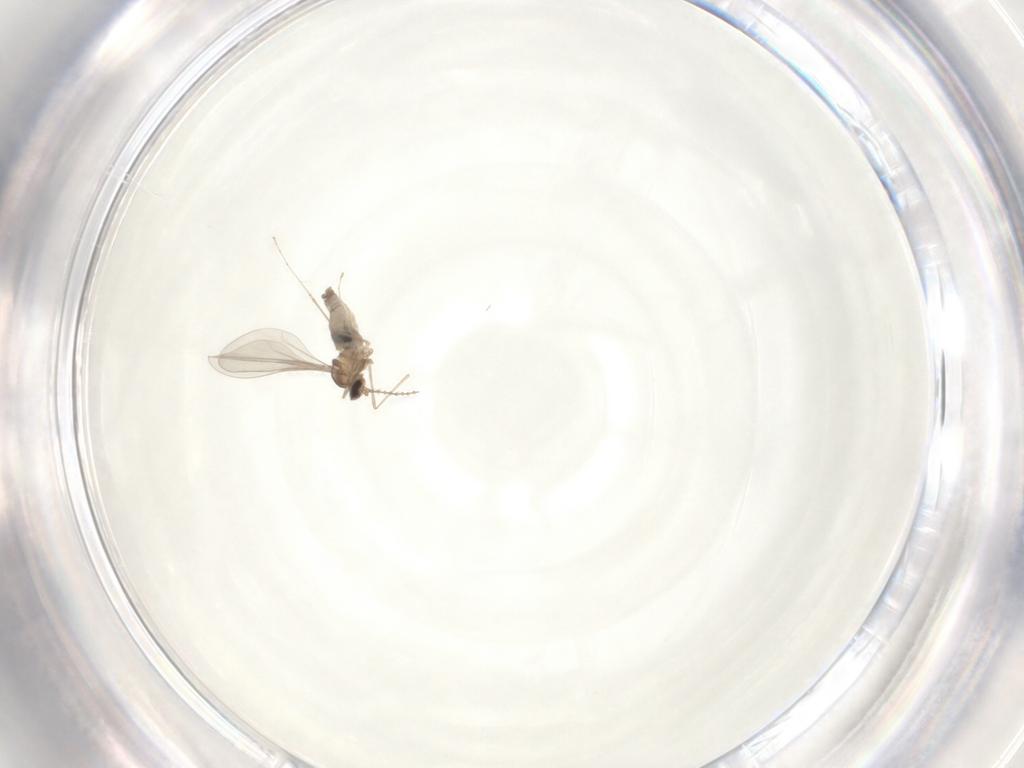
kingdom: Animalia
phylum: Arthropoda
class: Insecta
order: Diptera
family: Cecidomyiidae
